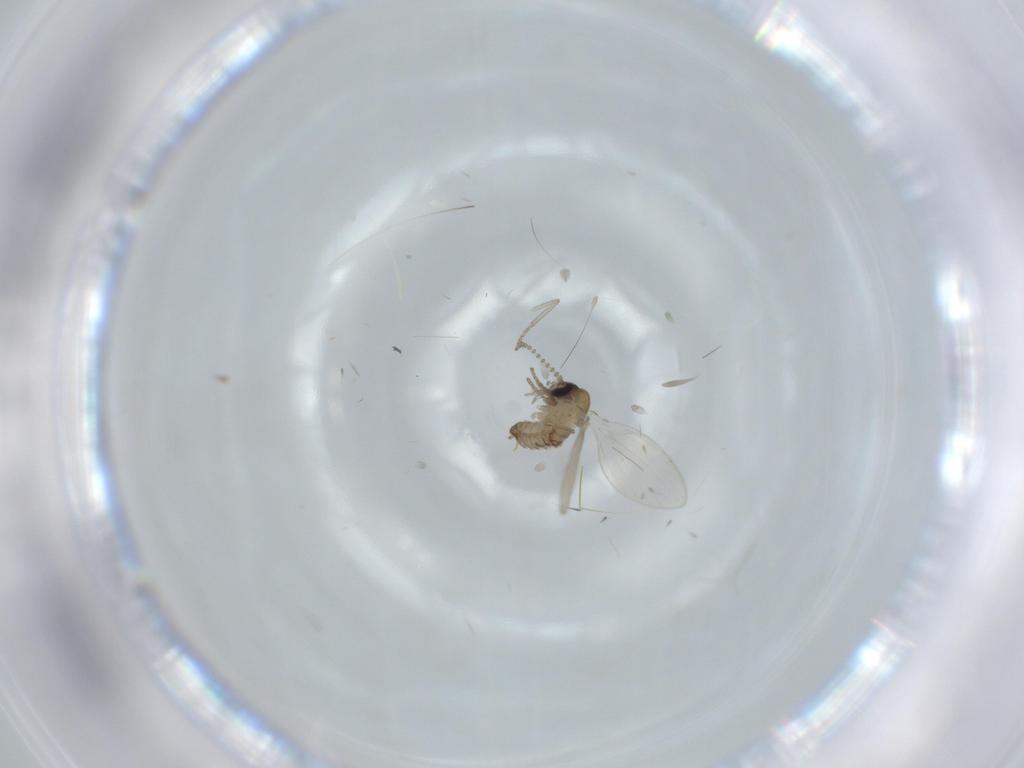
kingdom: Animalia
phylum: Arthropoda
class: Insecta
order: Diptera
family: Psychodidae
